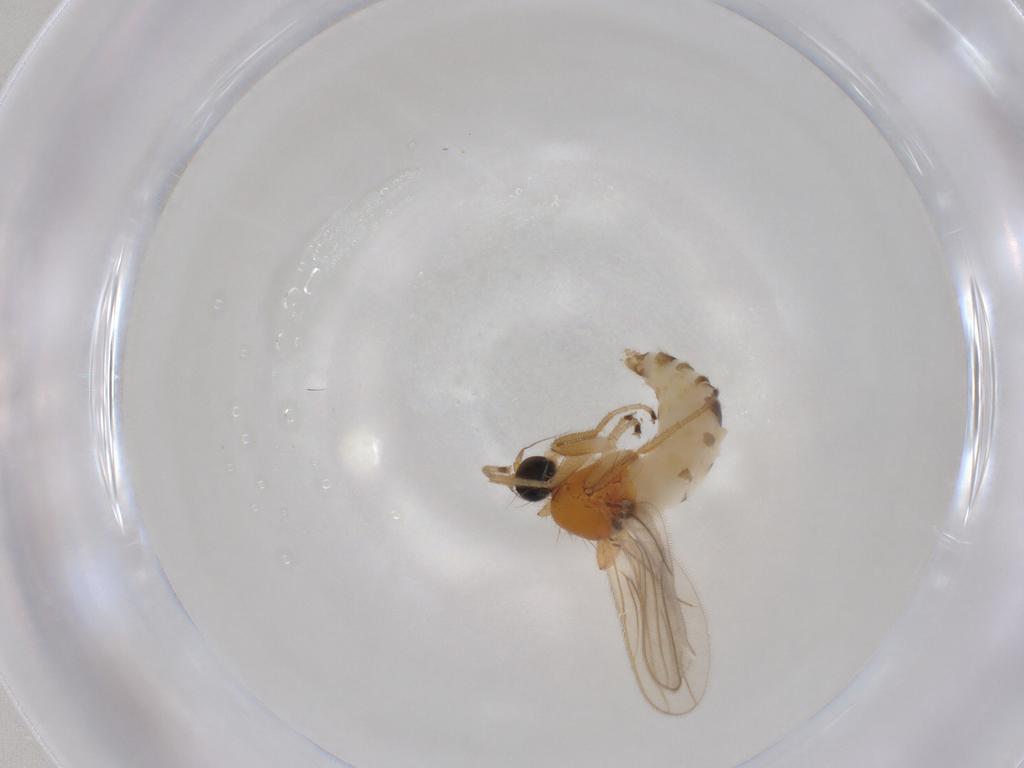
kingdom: Animalia
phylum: Arthropoda
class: Insecta
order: Diptera
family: Hybotidae
